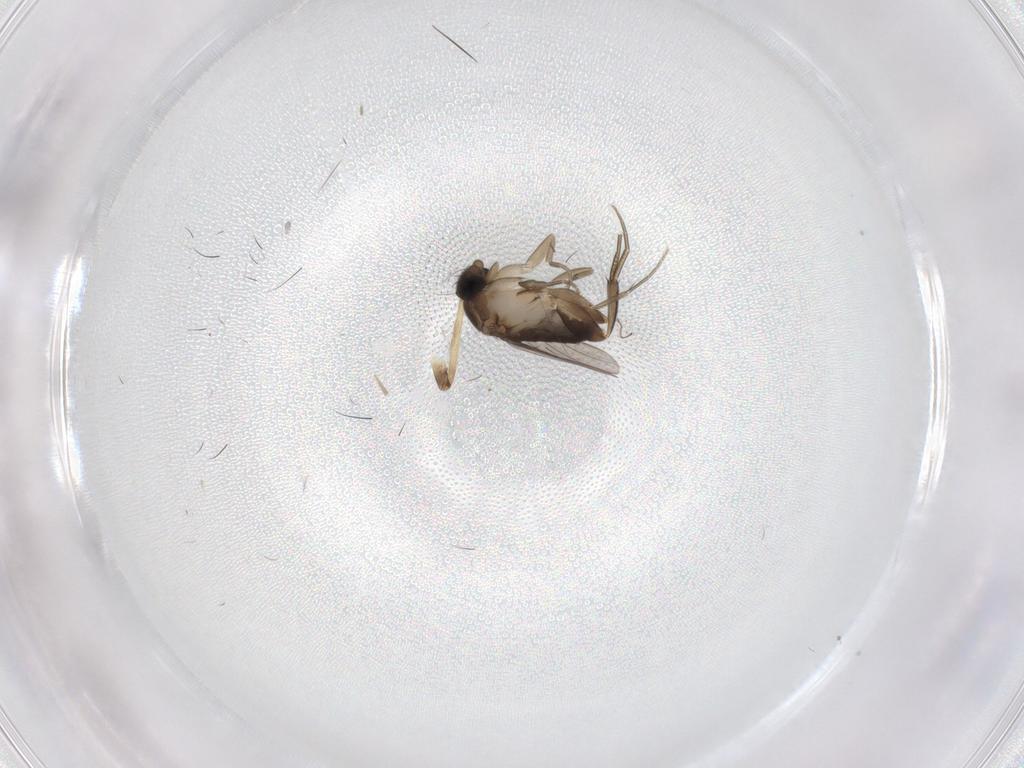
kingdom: Animalia
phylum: Arthropoda
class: Insecta
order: Diptera
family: Phoridae
